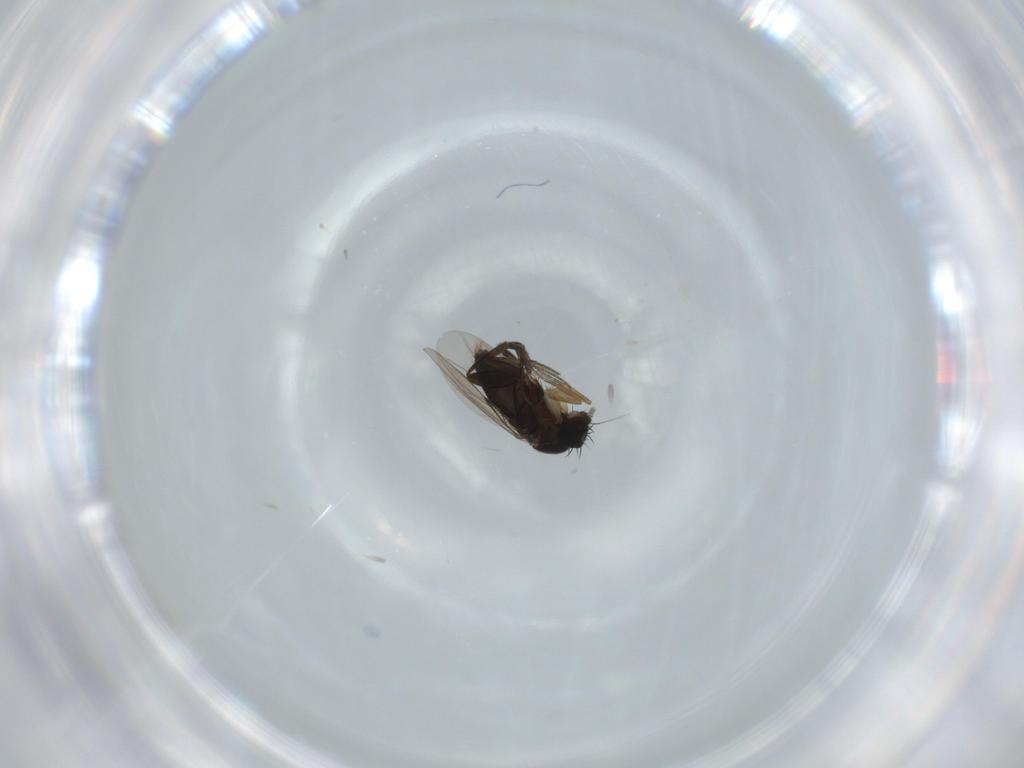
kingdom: Animalia
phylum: Arthropoda
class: Insecta
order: Diptera
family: Phoridae
